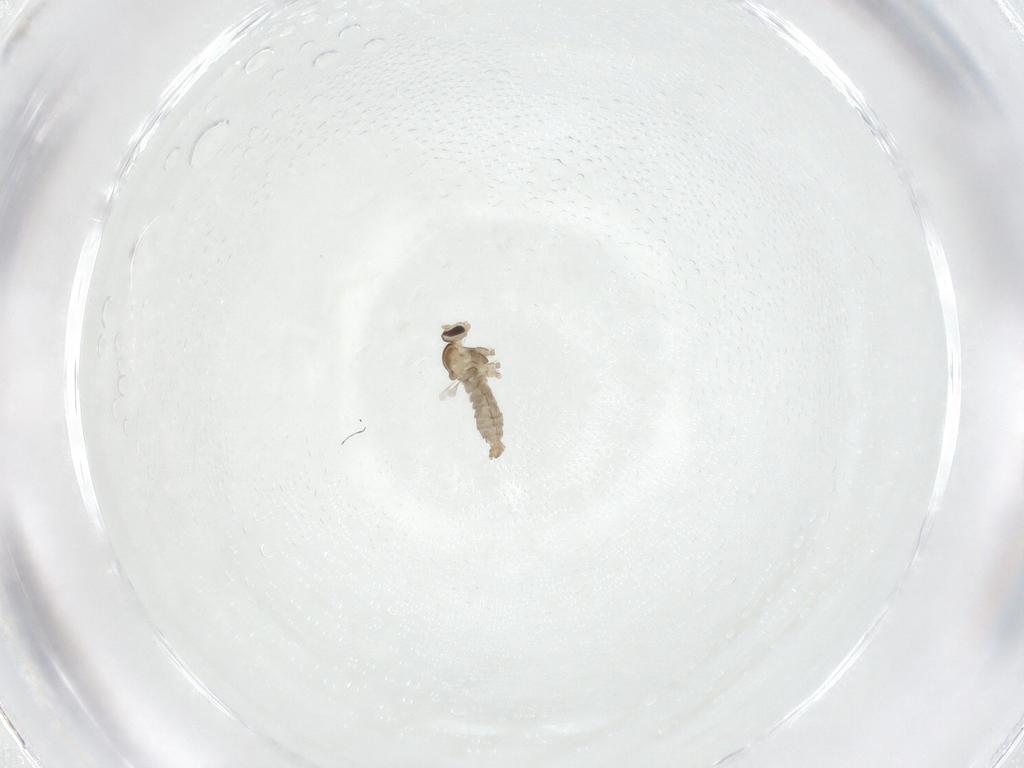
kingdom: Animalia
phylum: Arthropoda
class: Insecta
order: Diptera
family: Cecidomyiidae
